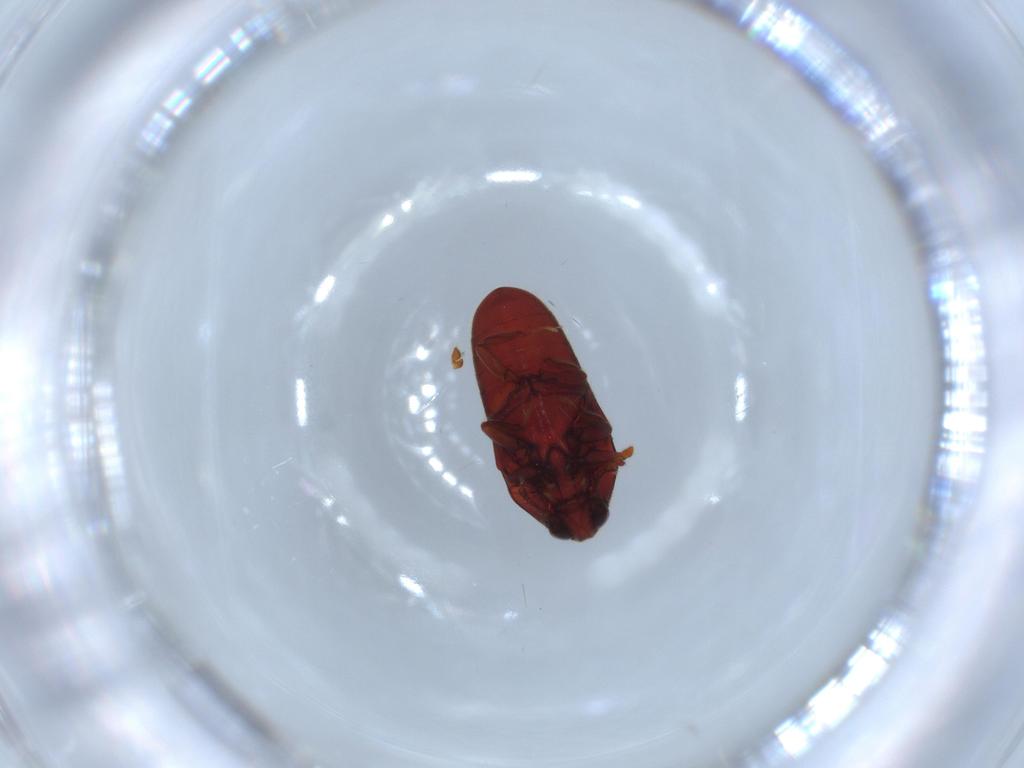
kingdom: Animalia
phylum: Arthropoda
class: Insecta
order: Coleoptera
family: Throscidae
